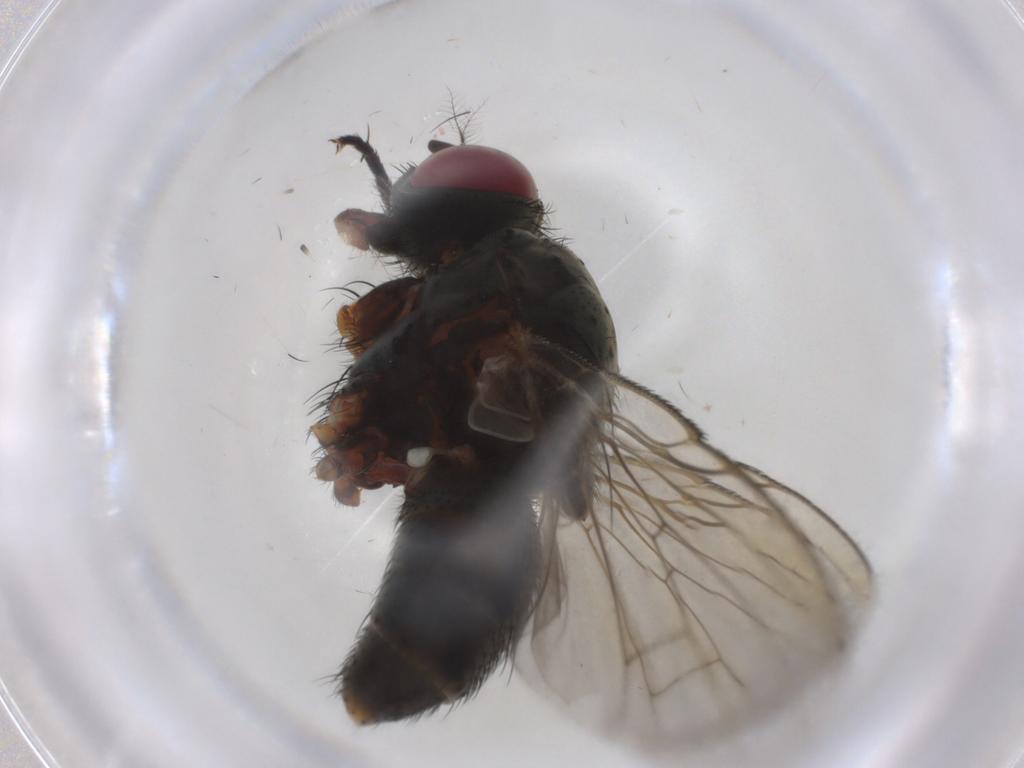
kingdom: Animalia
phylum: Arthropoda
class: Insecta
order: Diptera
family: Muscidae
